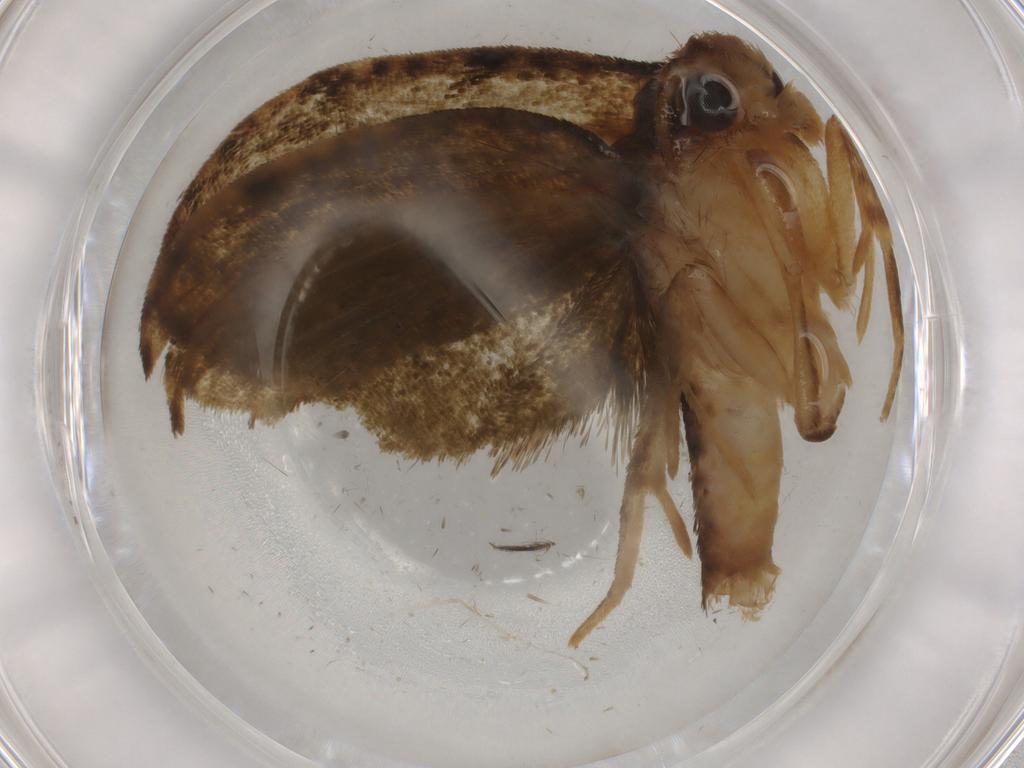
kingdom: Animalia
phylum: Arthropoda
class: Insecta
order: Lepidoptera
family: Geometridae
